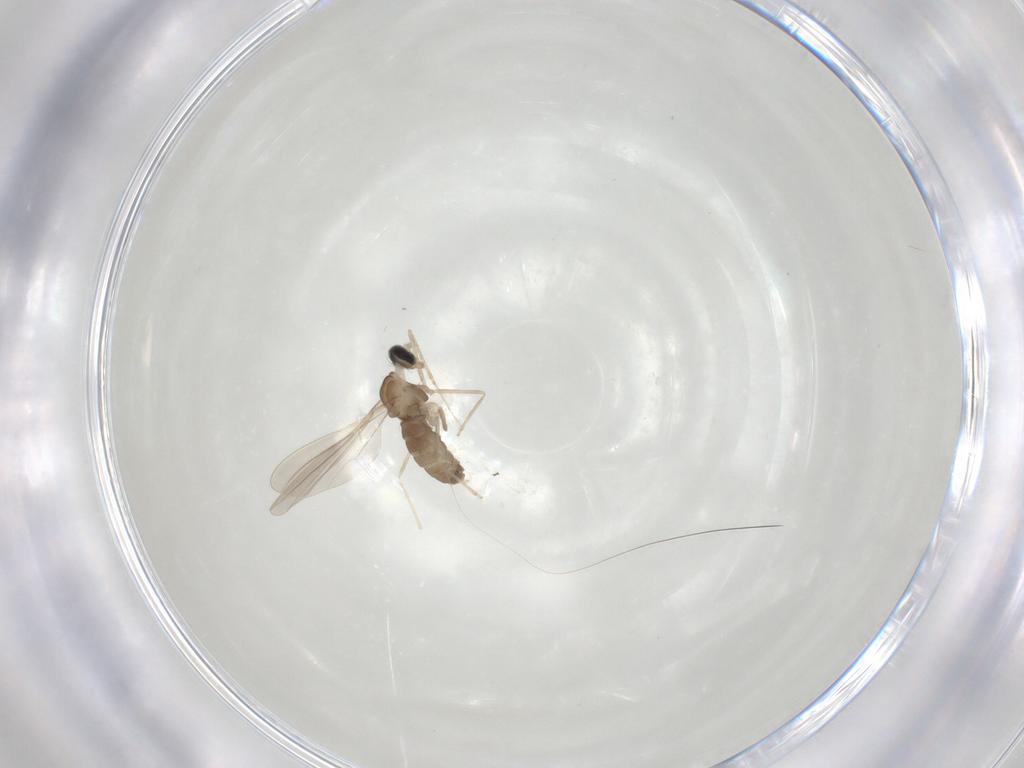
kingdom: Animalia
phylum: Arthropoda
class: Insecta
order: Diptera
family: Cecidomyiidae
